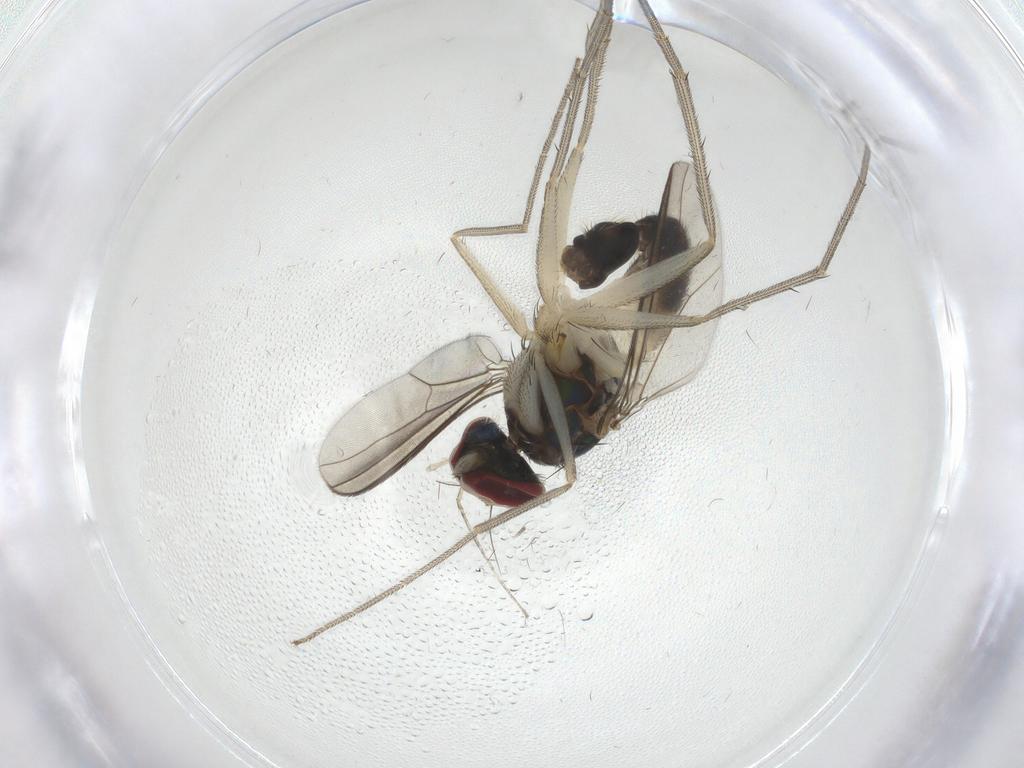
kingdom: Animalia
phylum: Arthropoda
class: Insecta
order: Diptera
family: Dolichopodidae
